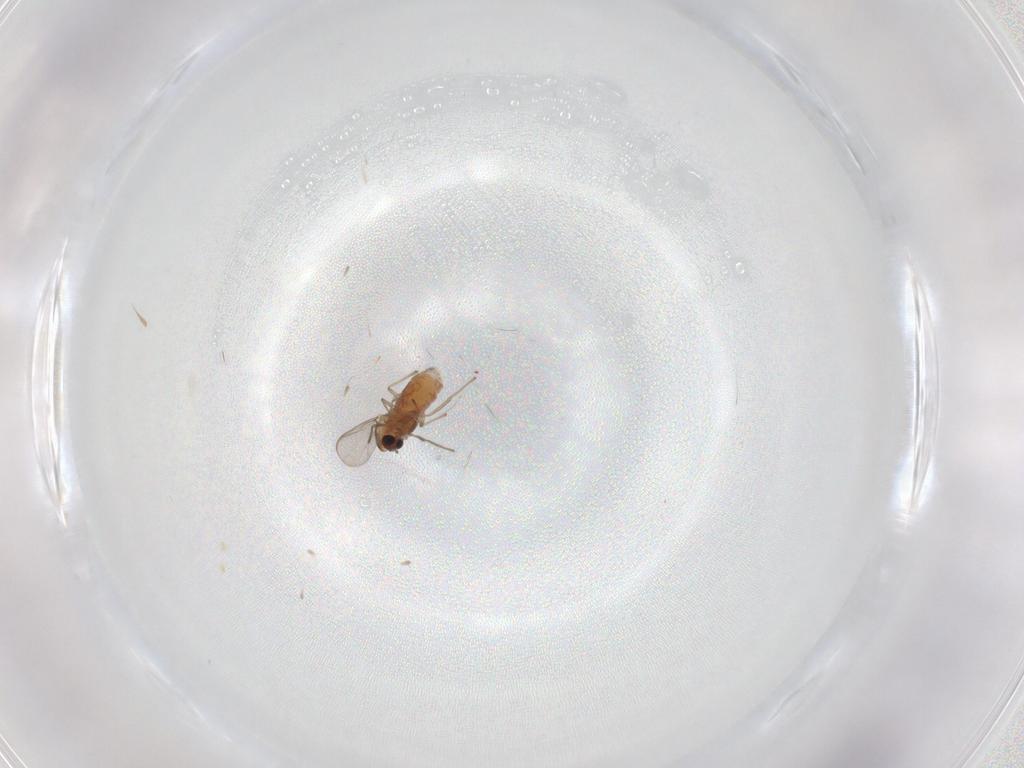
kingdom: Animalia
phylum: Arthropoda
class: Insecta
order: Diptera
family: Chironomidae
